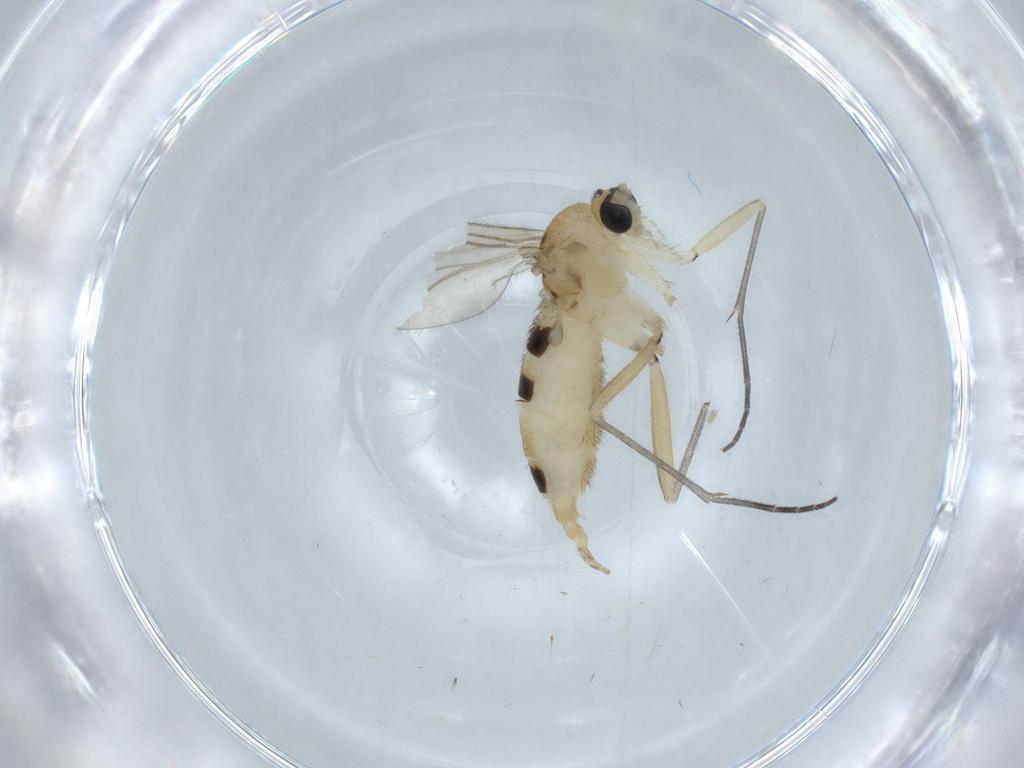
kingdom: Animalia
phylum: Arthropoda
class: Insecta
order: Diptera
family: Sciaridae
